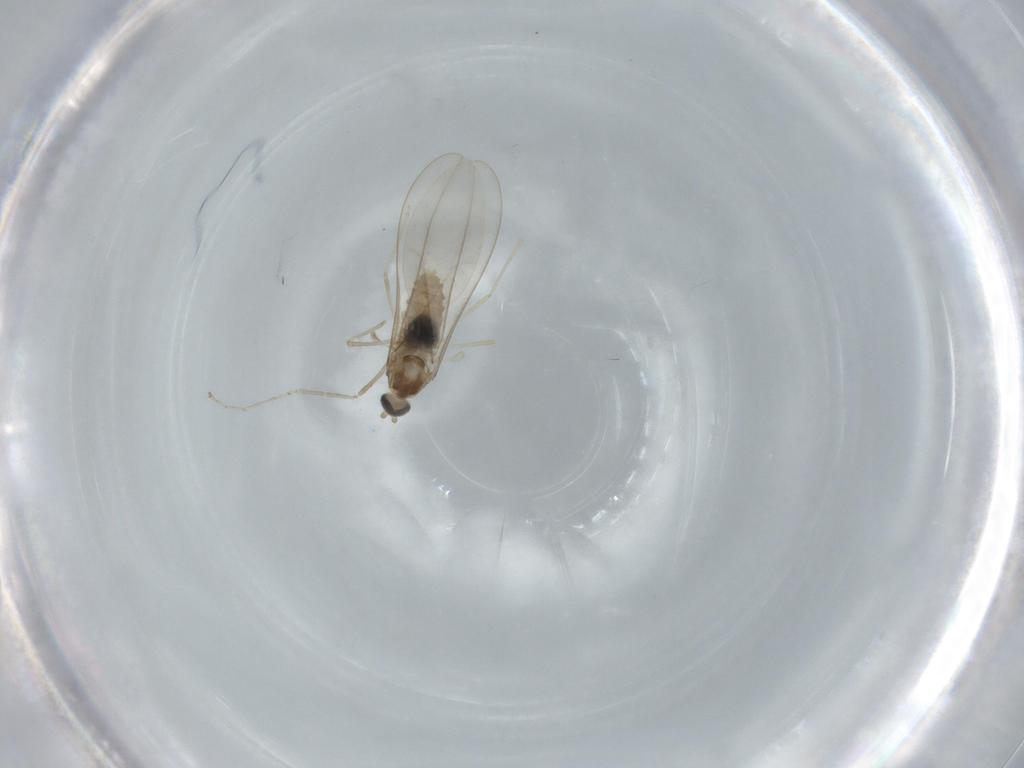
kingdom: Animalia
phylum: Arthropoda
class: Insecta
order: Diptera
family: Cecidomyiidae
